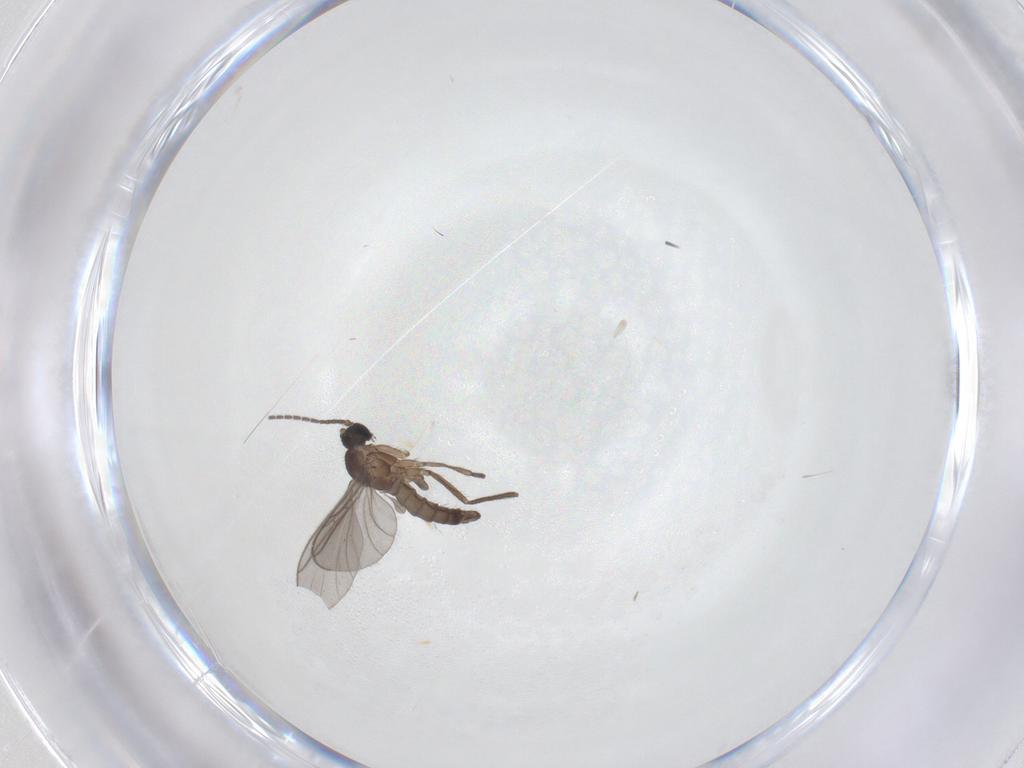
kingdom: Animalia
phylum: Arthropoda
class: Insecta
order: Diptera
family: Chironomidae
